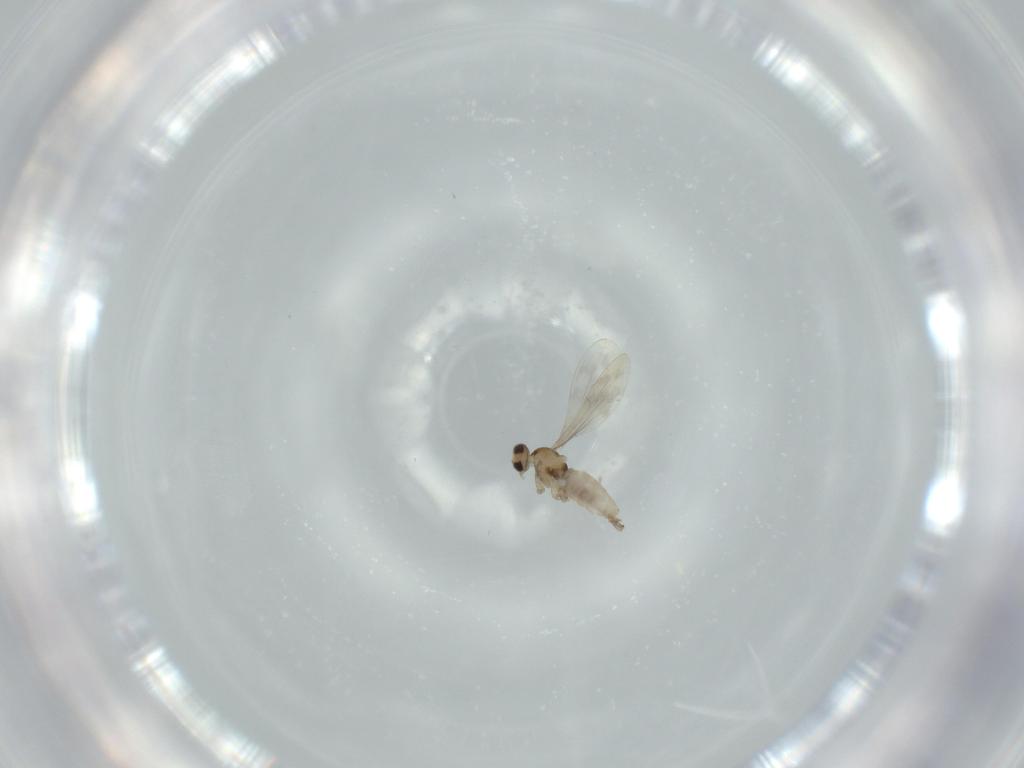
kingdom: Animalia
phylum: Arthropoda
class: Insecta
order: Diptera
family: Cecidomyiidae
